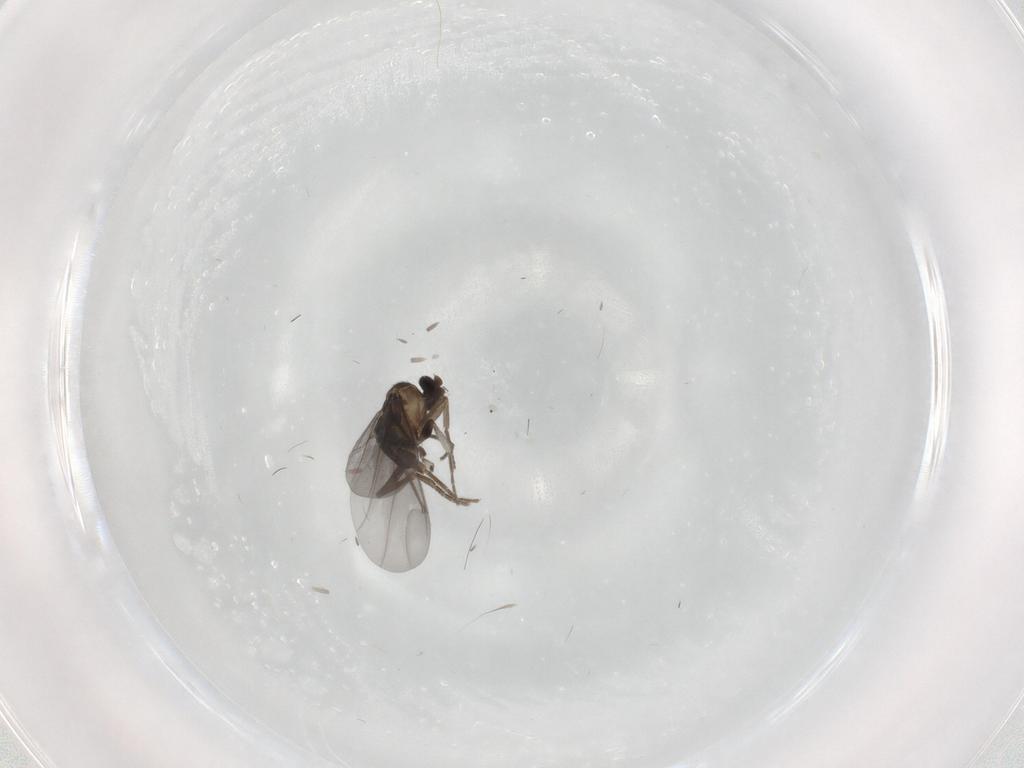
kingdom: Animalia
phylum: Arthropoda
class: Insecta
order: Diptera
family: Phoridae
